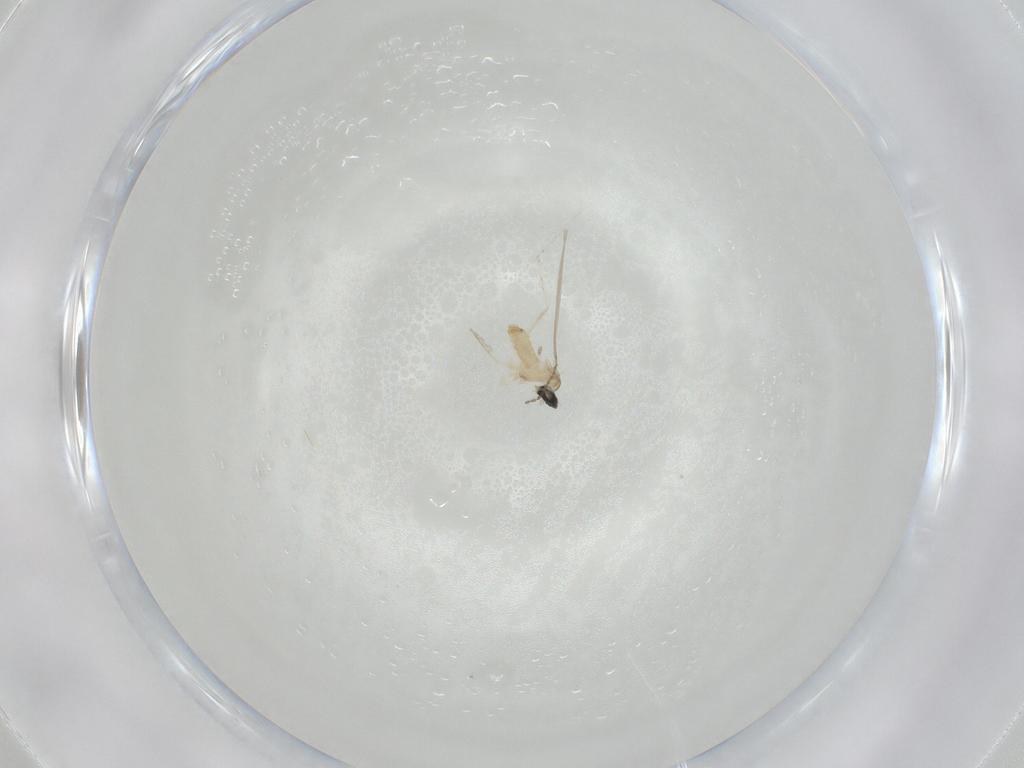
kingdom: Animalia
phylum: Arthropoda
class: Insecta
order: Diptera
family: Cecidomyiidae
